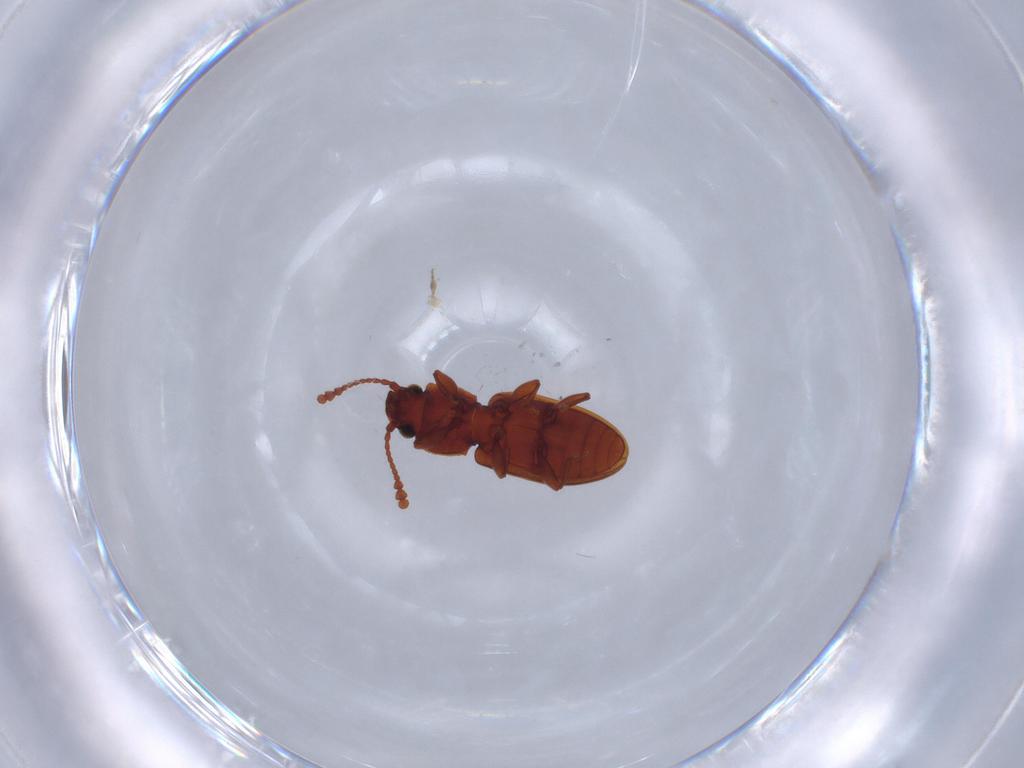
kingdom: Animalia
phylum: Arthropoda
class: Insecta
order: Coleoptera
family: Silvanidae
